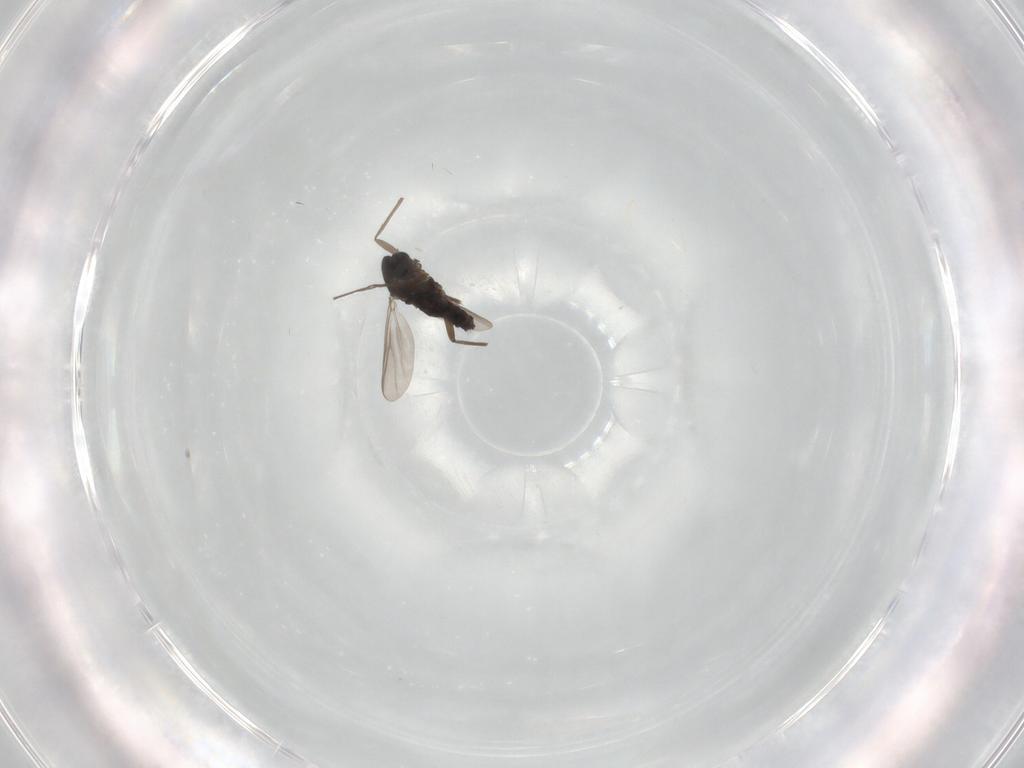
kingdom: Animalia
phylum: Arthropoda
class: Insecta
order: Diptera
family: Chironomidae
